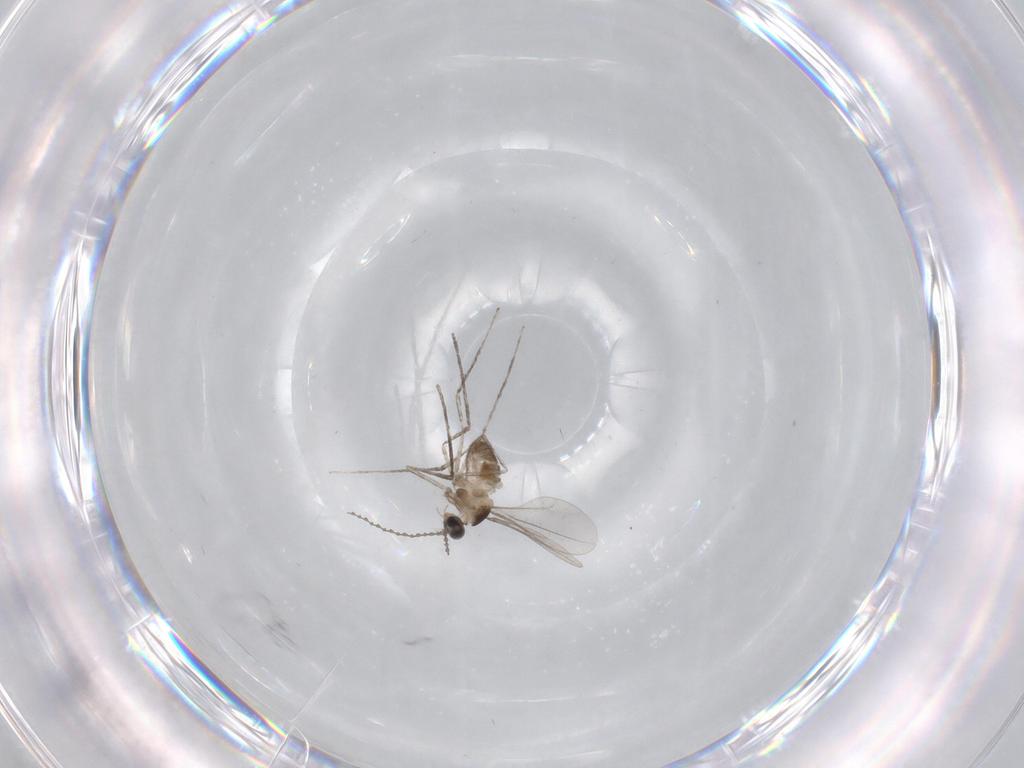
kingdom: Animalia
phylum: Arthropoda
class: Insecta
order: Diptera
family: Cecidomyiidae
